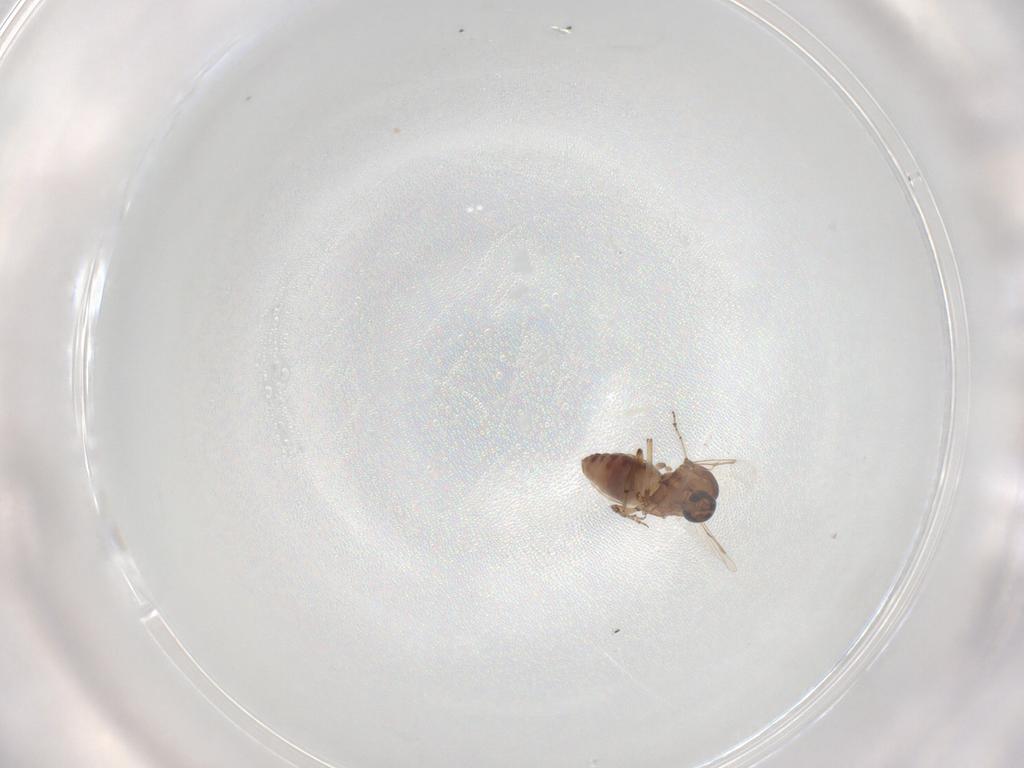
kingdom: Animalia
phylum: Arthropoda
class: Insecta
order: Diptera
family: Ceratopogonidae
